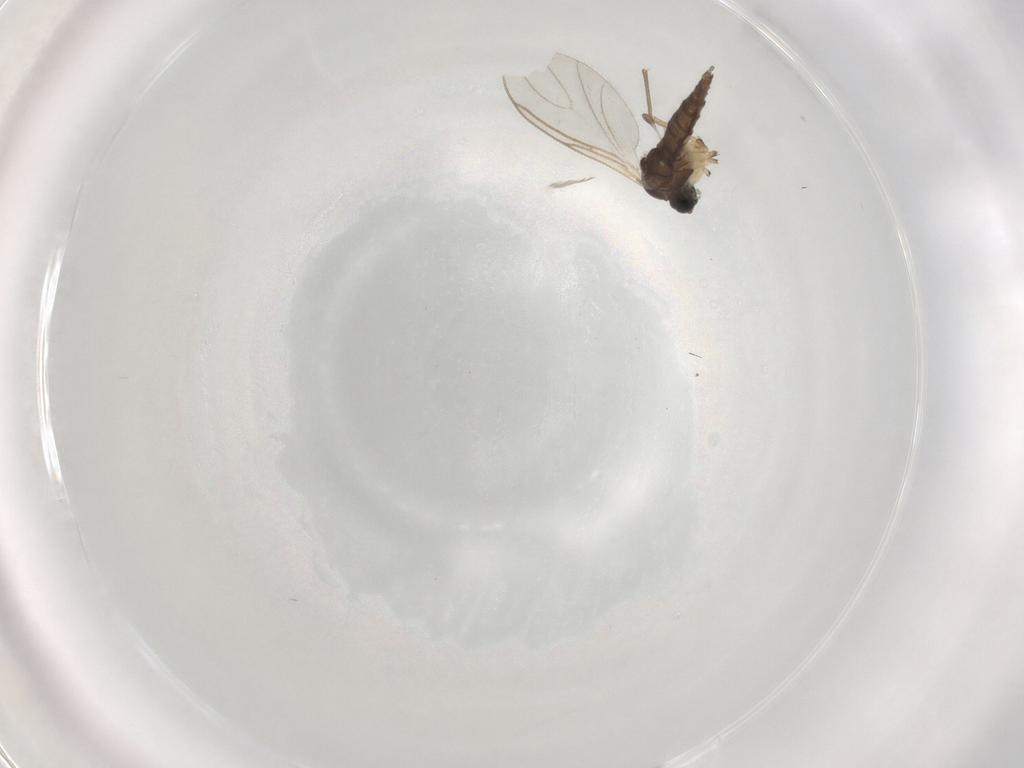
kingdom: Animalia
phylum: Arthropoda
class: Insecta
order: Diptera
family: Sciaridae
